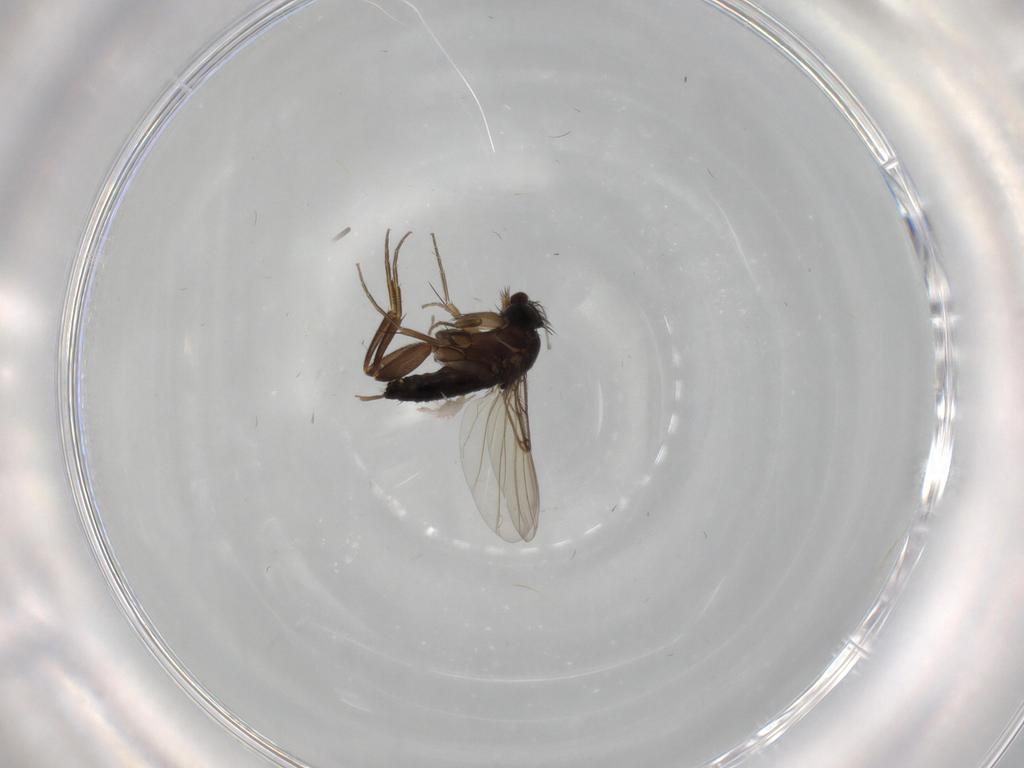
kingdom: Animalia
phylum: Arthropoda
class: Insecta
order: Diptera
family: Phoridae
